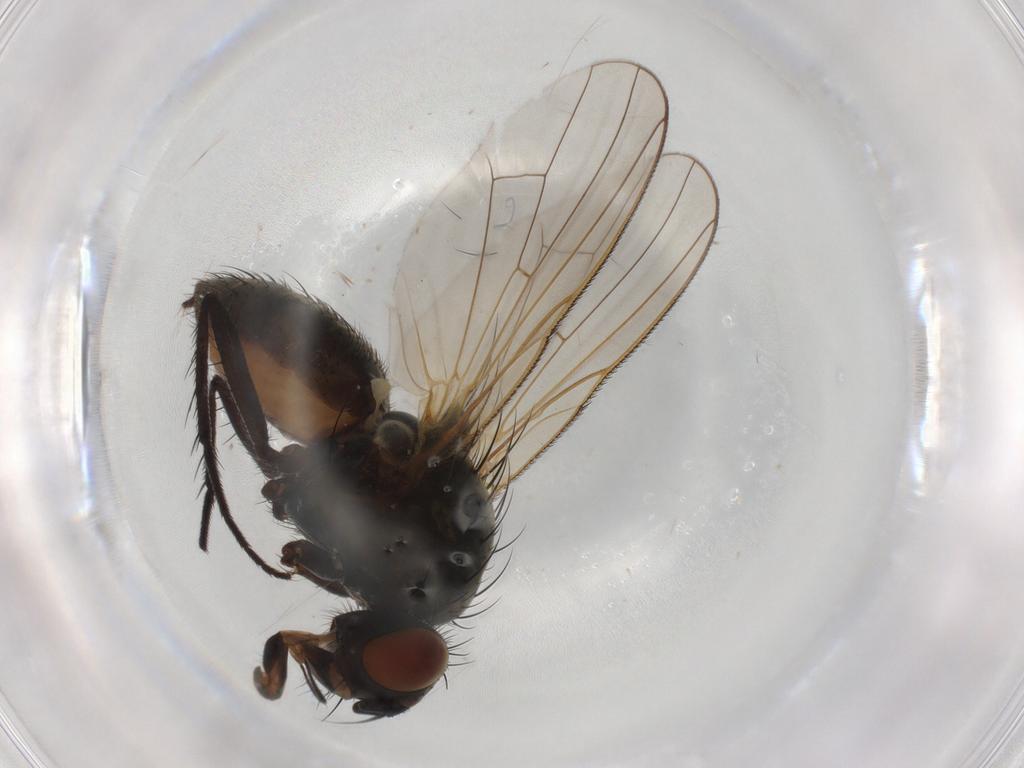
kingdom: Animalia
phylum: Arthropoda
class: Insecta
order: Diptera
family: Anthomyiidae
